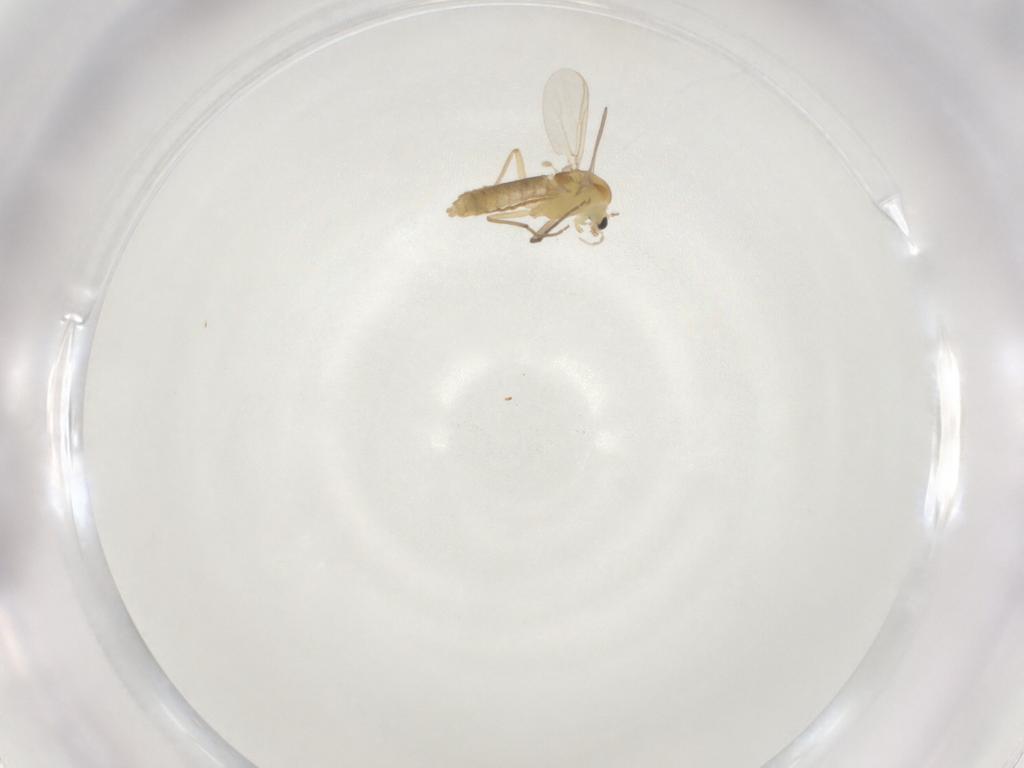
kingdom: Animalia
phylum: Arthropoda
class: Insecta
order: Diptera
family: Chironomidae
